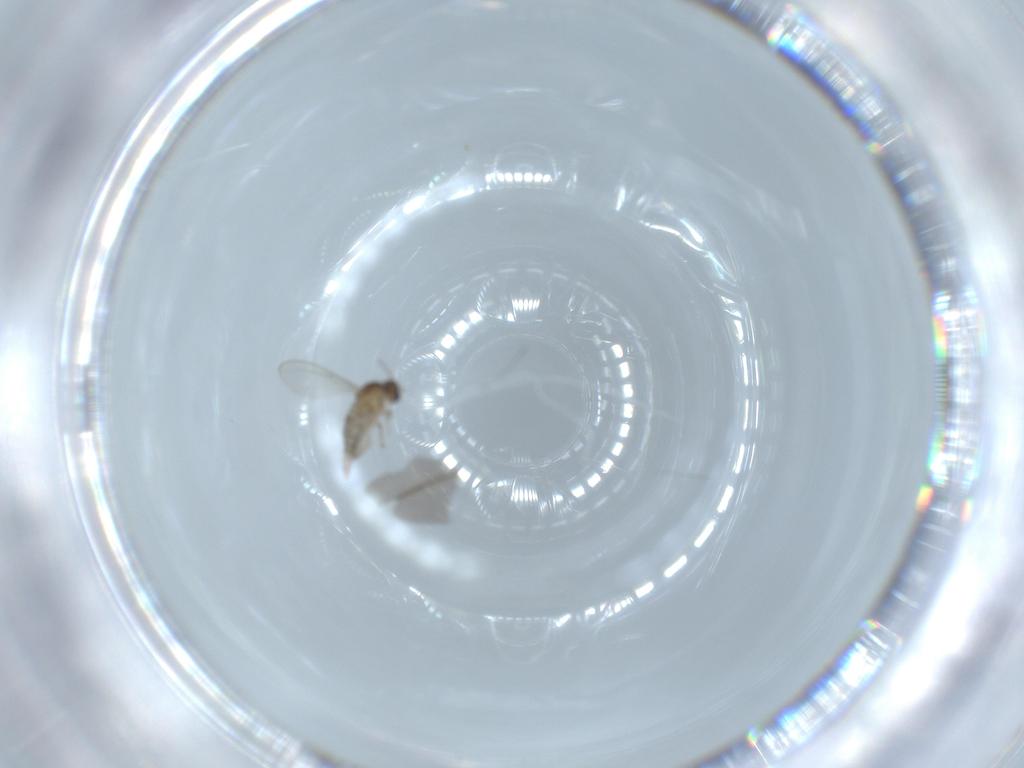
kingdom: Animalia
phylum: Arthropoda
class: Insecta
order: Diptera
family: Cecidomyiidae
